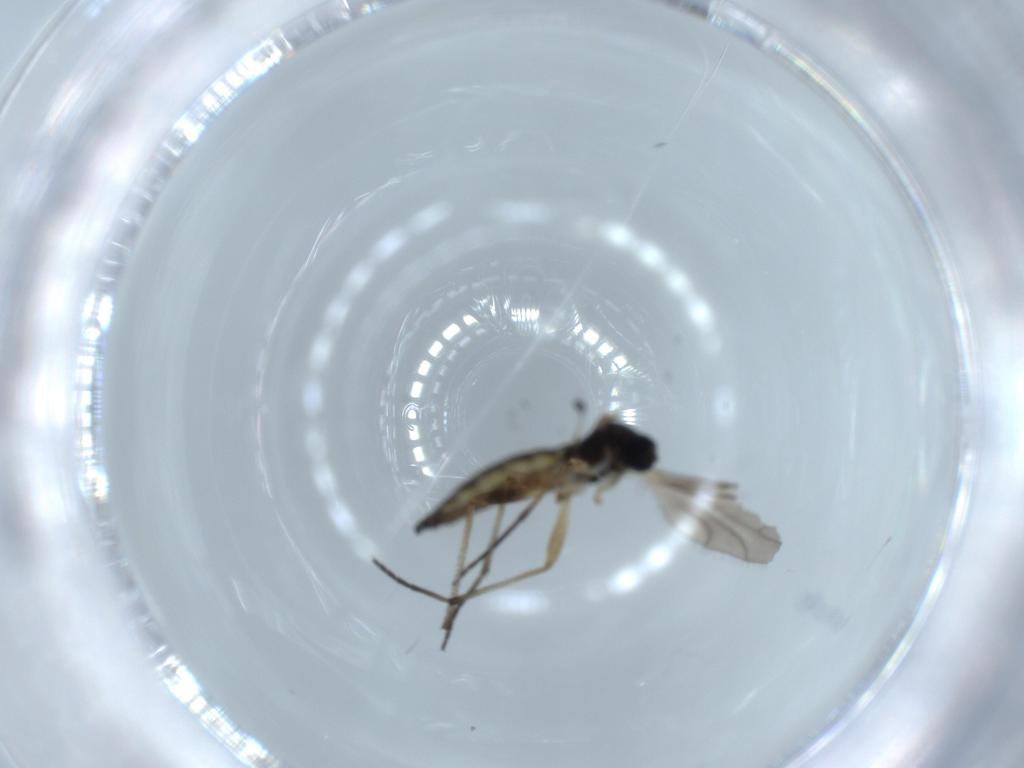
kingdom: Animalia
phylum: Arthropoda
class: Insecta
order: Diptera
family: Sciaridae
